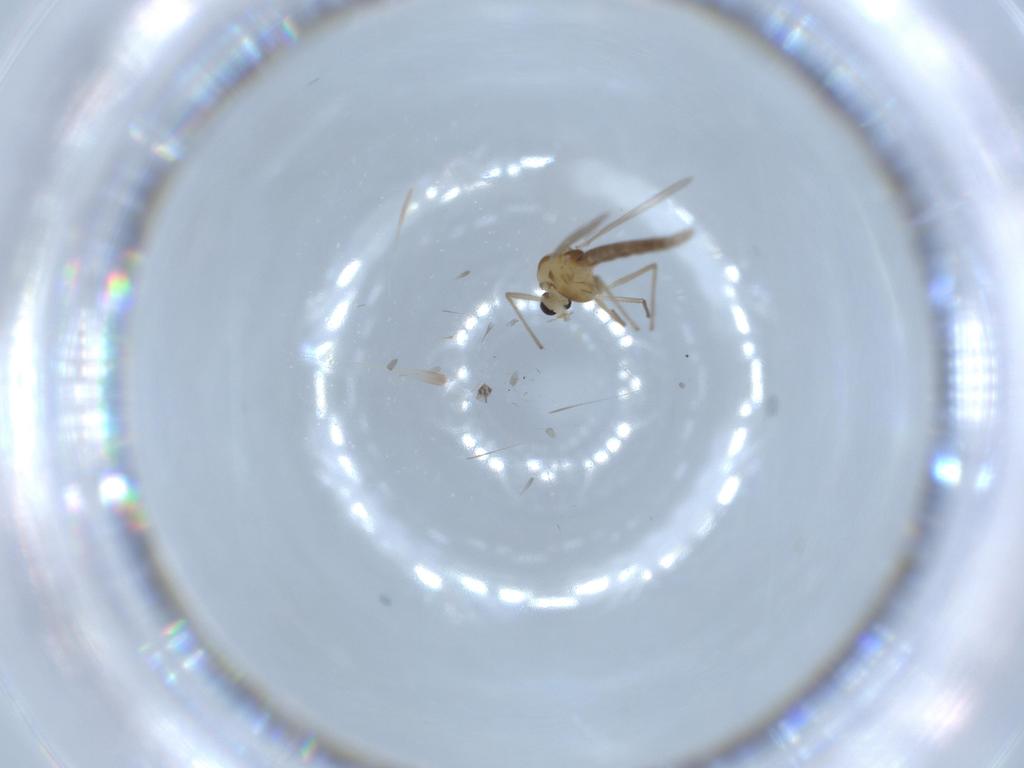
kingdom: Animalia
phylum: Arthropoda
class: Insecta
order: Diptera
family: Chironomidae
